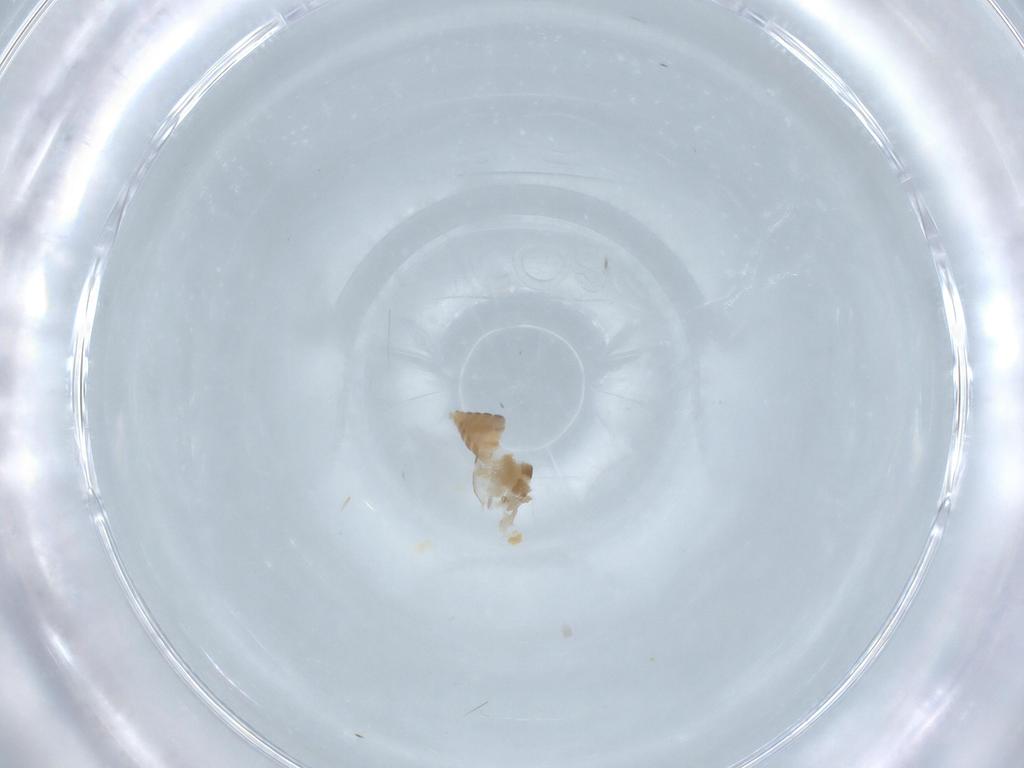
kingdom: Animalia
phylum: Arthropoda
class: Insecta
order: Diptera
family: Ceratopogonidae
